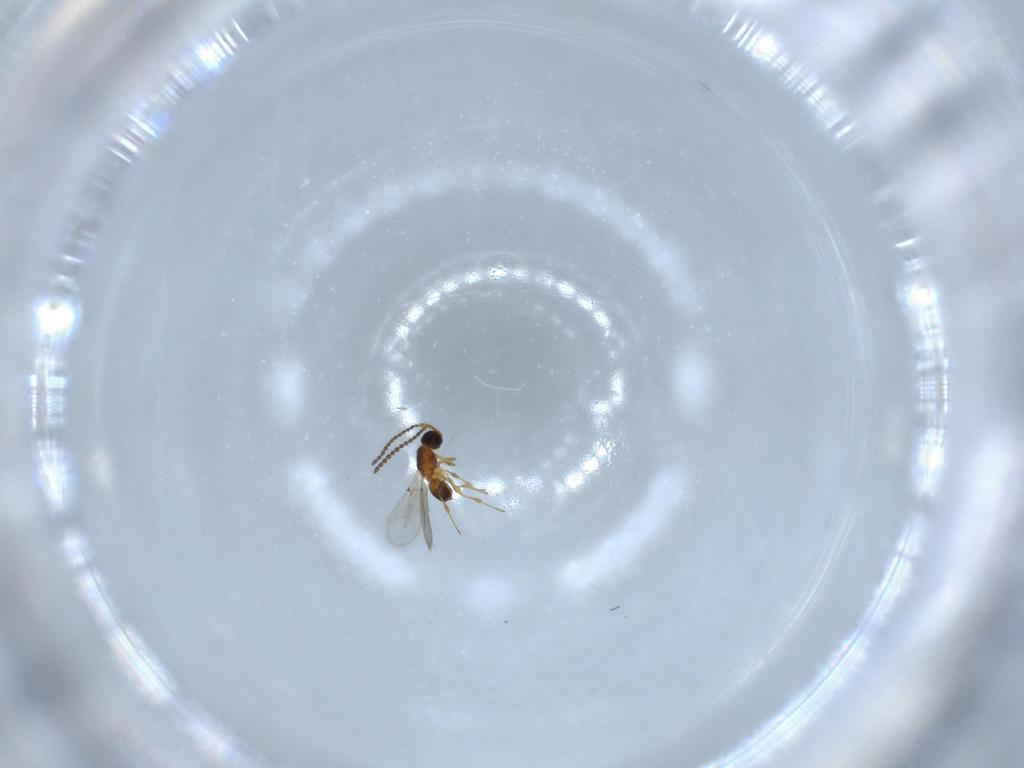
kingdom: Animalia
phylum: Arthropoda
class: Insecta
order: Hymenoptera
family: Diapriidae
